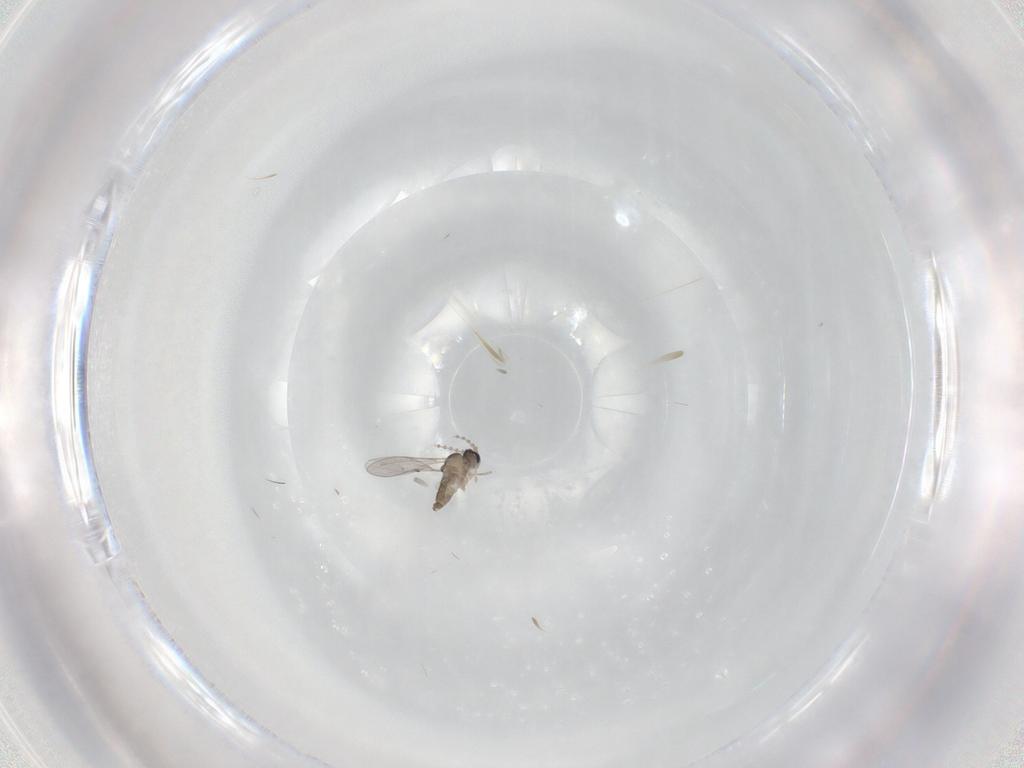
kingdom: Animalia
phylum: Arthropoda
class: Insecta
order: Diptera
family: Cecidomyiidae
